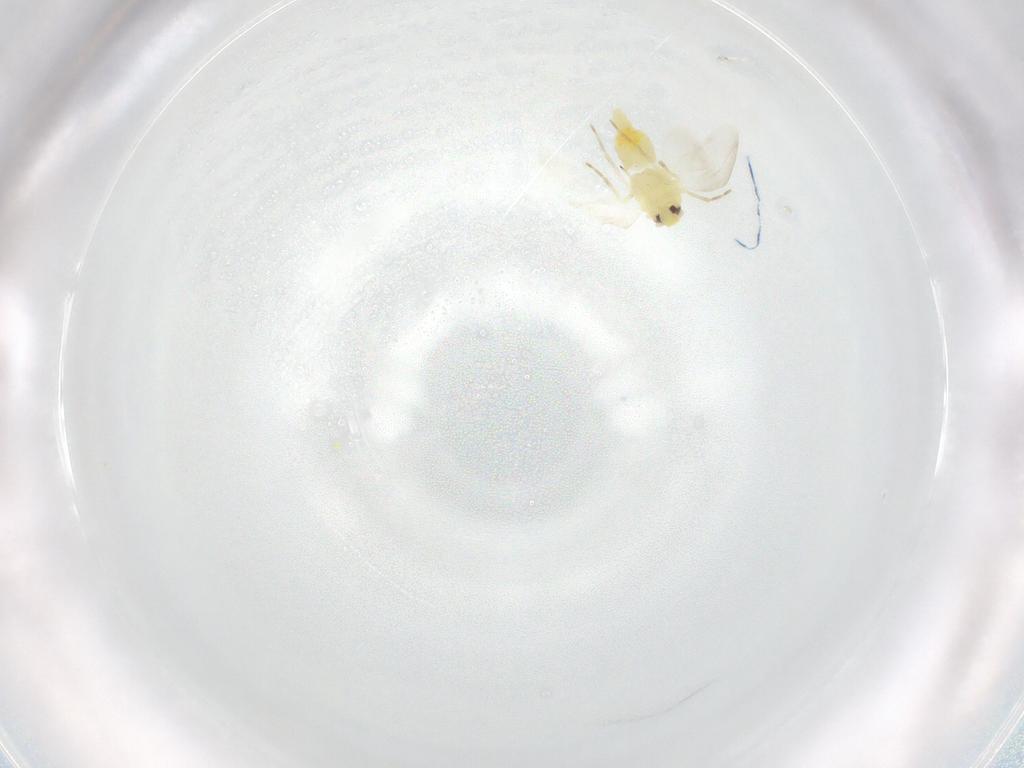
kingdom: Animalia
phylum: Arthropoda
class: Insecta
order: Hemiptera
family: Aleyrodidae
